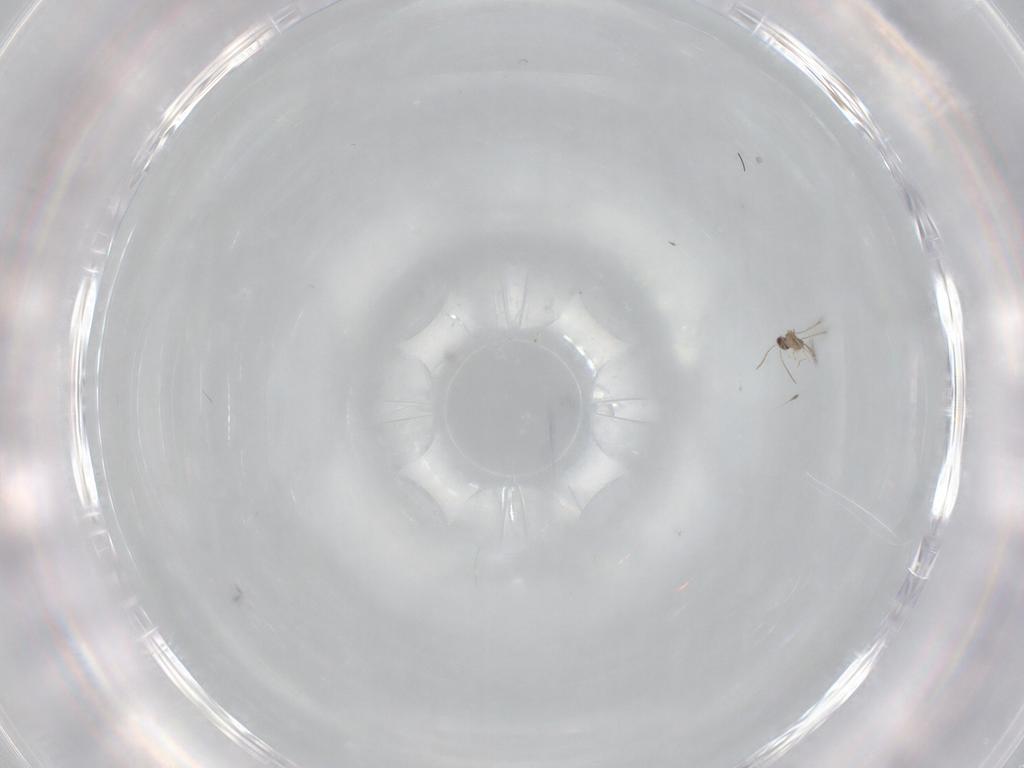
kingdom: Animalia
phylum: Arthropoda
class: Insecta
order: Hymenoptera
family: Mymaridae
